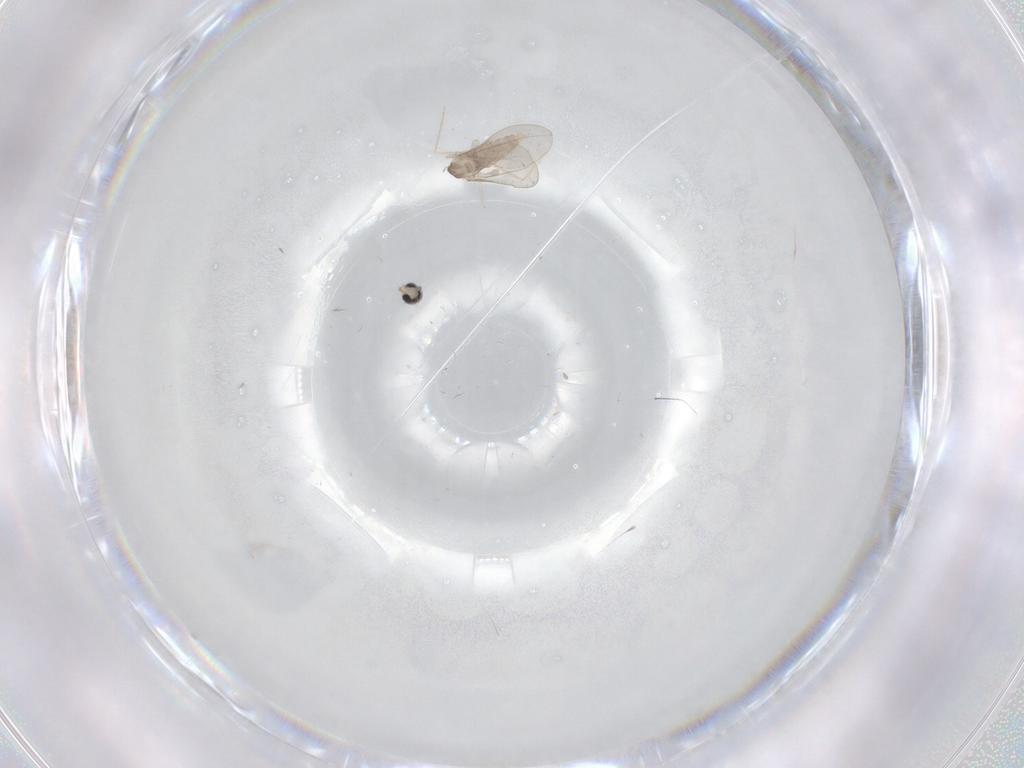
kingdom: Animalia
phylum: Arthropoda
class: Insecta
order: Diptera
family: Chironomidae
